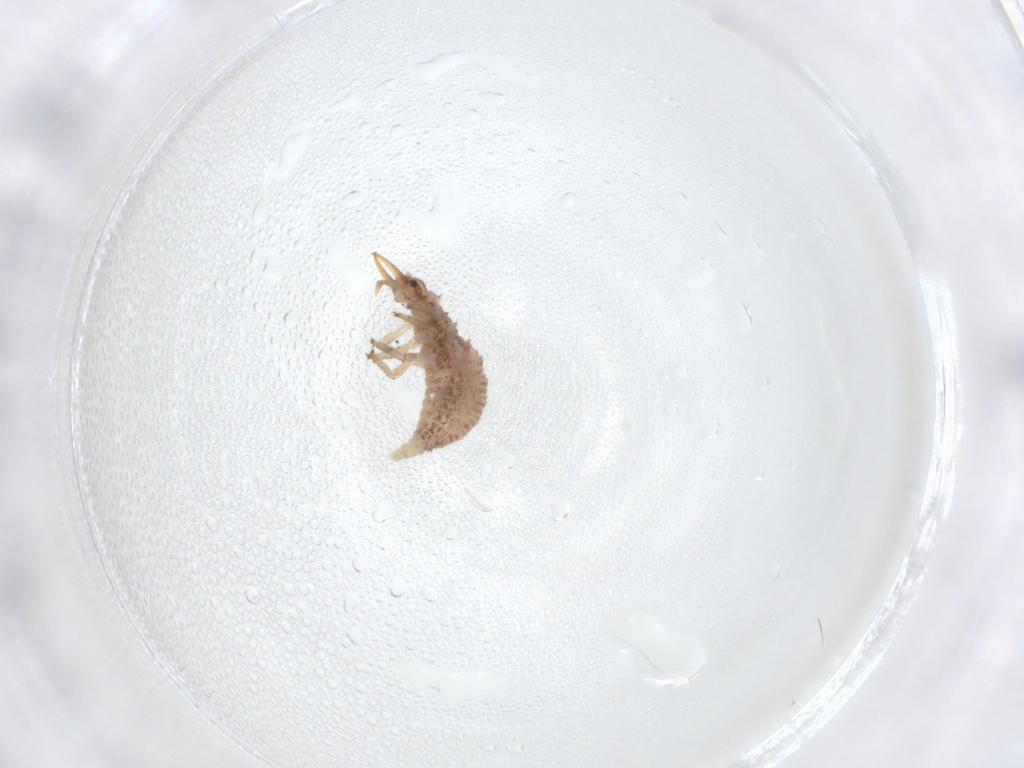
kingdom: Animalia
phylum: Arthropoda
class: Insecta
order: Neuroptera
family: Chrysopidae
